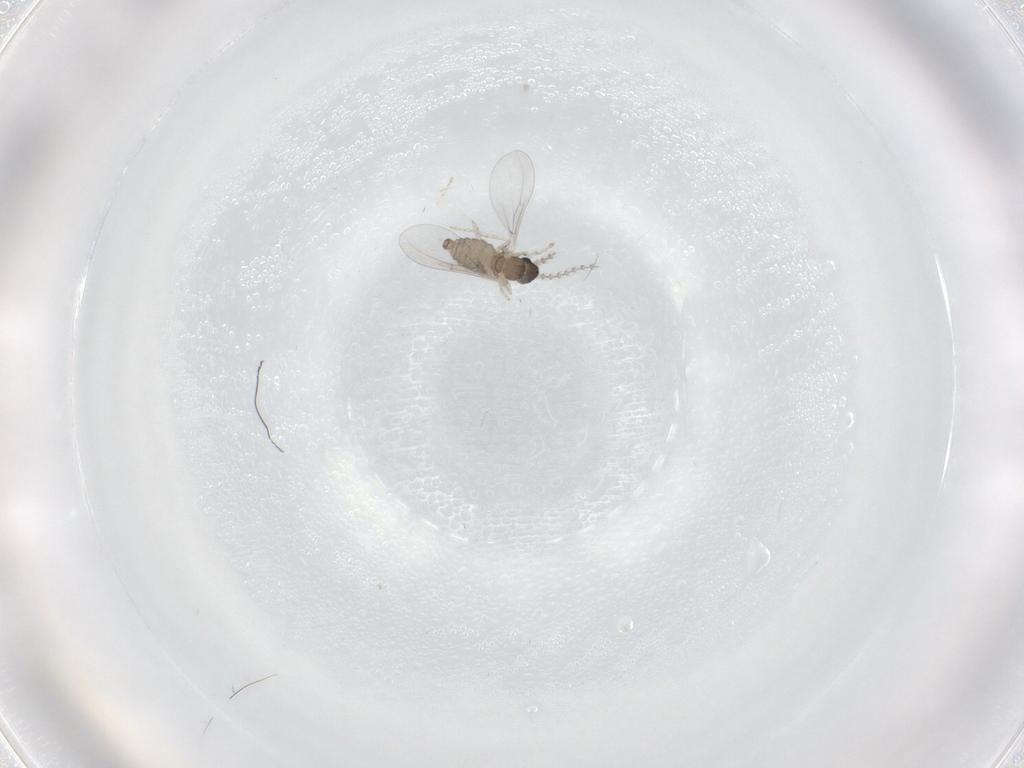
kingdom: Animalia
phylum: Arthropoda
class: Insecta
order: Diptera
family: Cecidomyiidae
